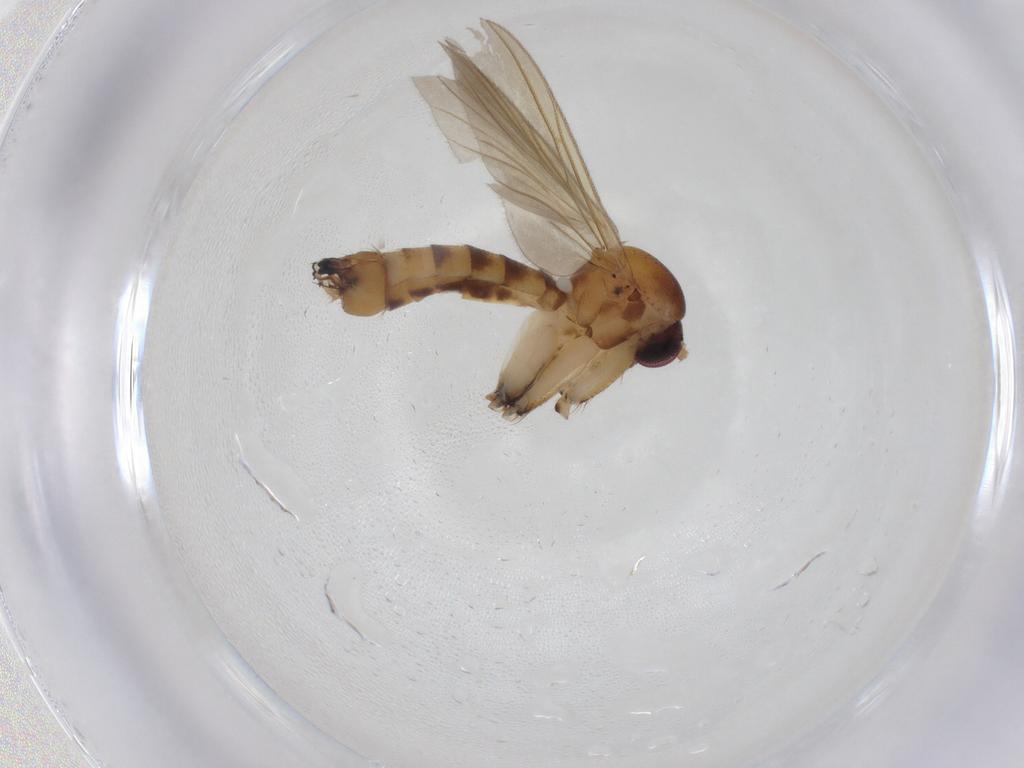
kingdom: Animalia
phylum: Arthropoda
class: Insecta
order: Diptera
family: Mycetophilidae
